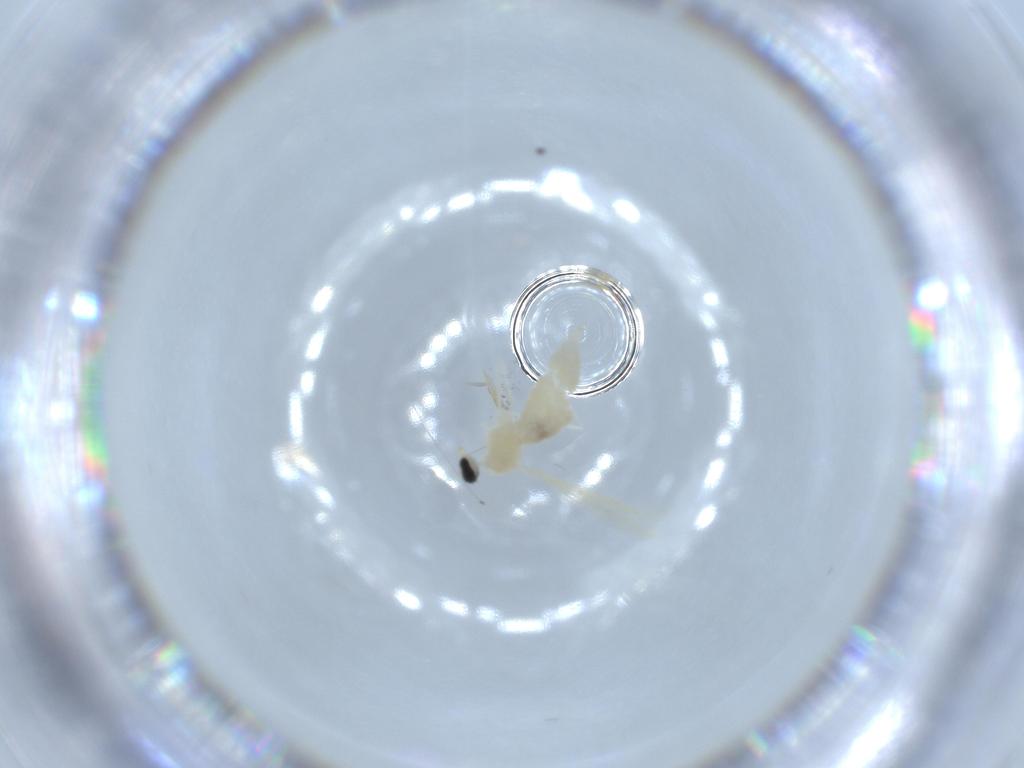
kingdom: Animalia
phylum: Arthropoda
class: Insecta
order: Diptera
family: Cecidomyiidae
